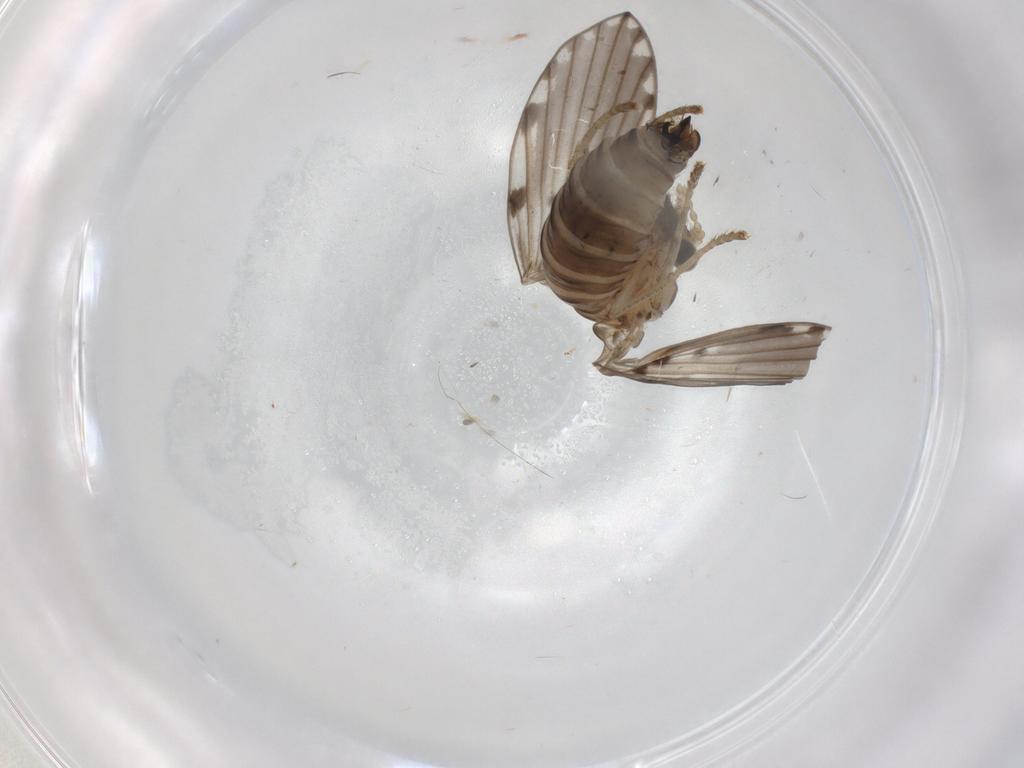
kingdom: Animalia
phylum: Arthropoda
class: Insecta
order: Diptera
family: Psychodidae
